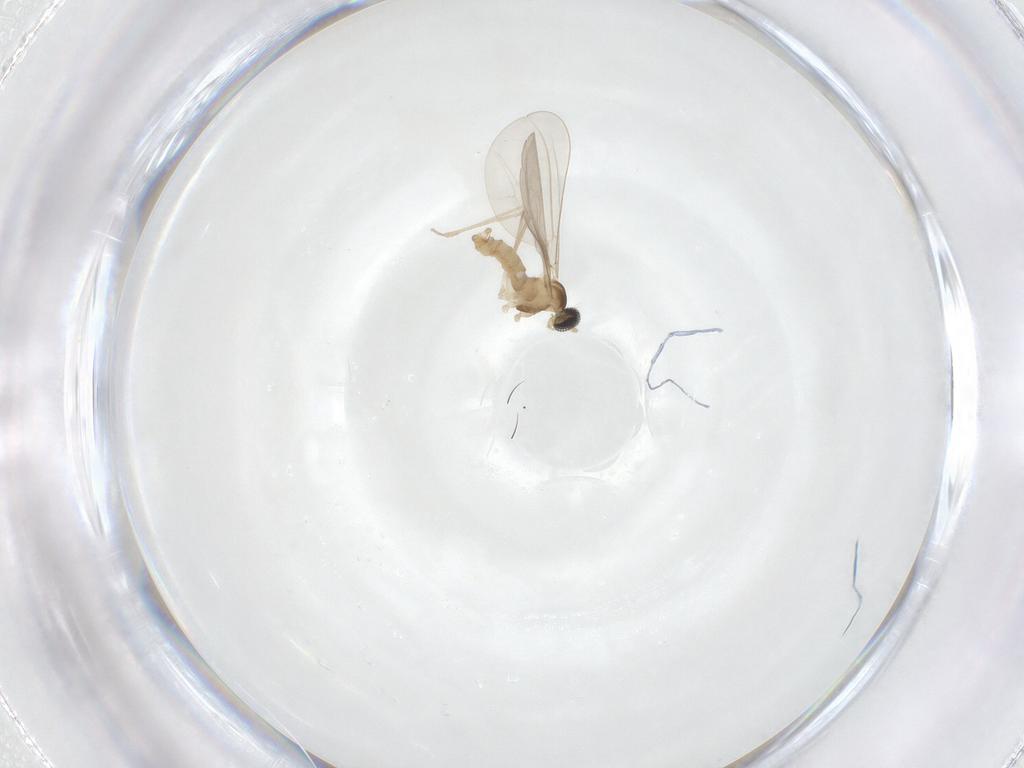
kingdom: Animalia
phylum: Arthropoda
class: Insecta
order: Diptera
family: Cecidomyiidae
